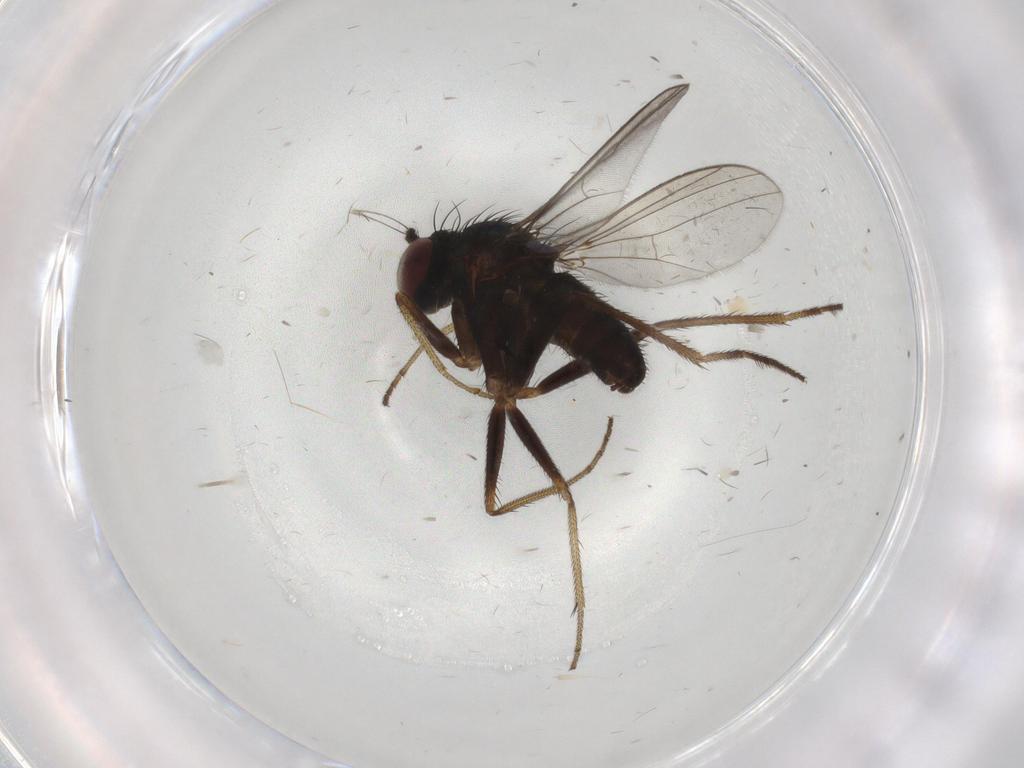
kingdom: Animalia
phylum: Arthropoda
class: Insecta
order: Diptera
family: Dolichopodidae
